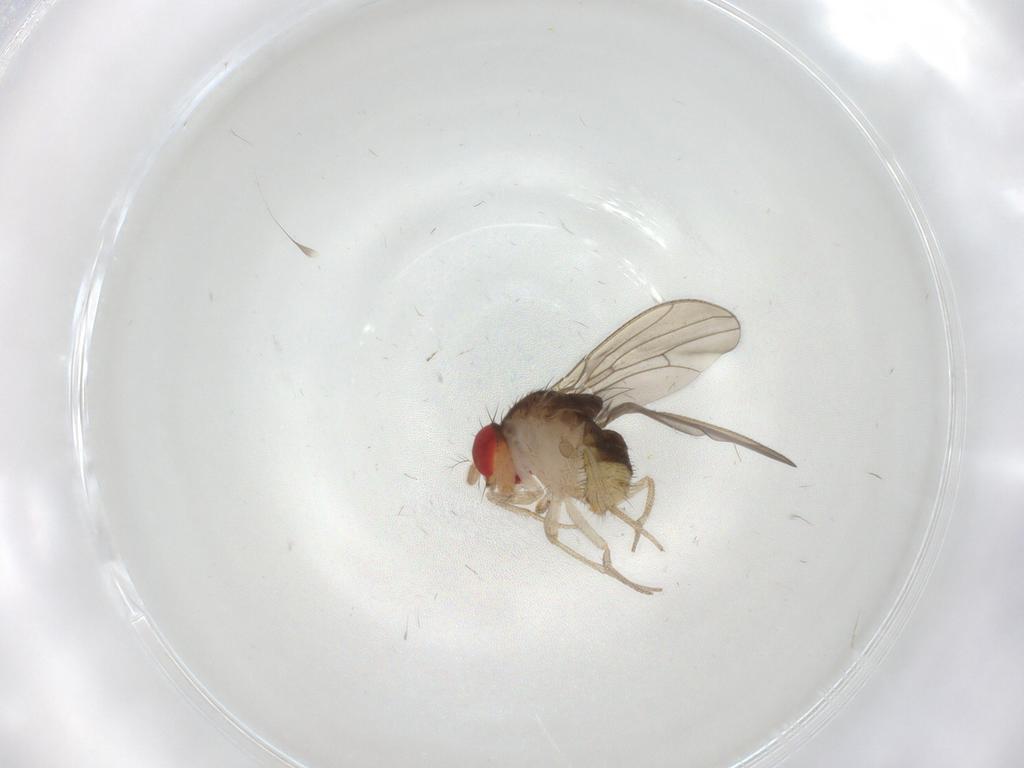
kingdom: Animalia
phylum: Arthropoda
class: Insecta
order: Diptera
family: Drosophilidae
